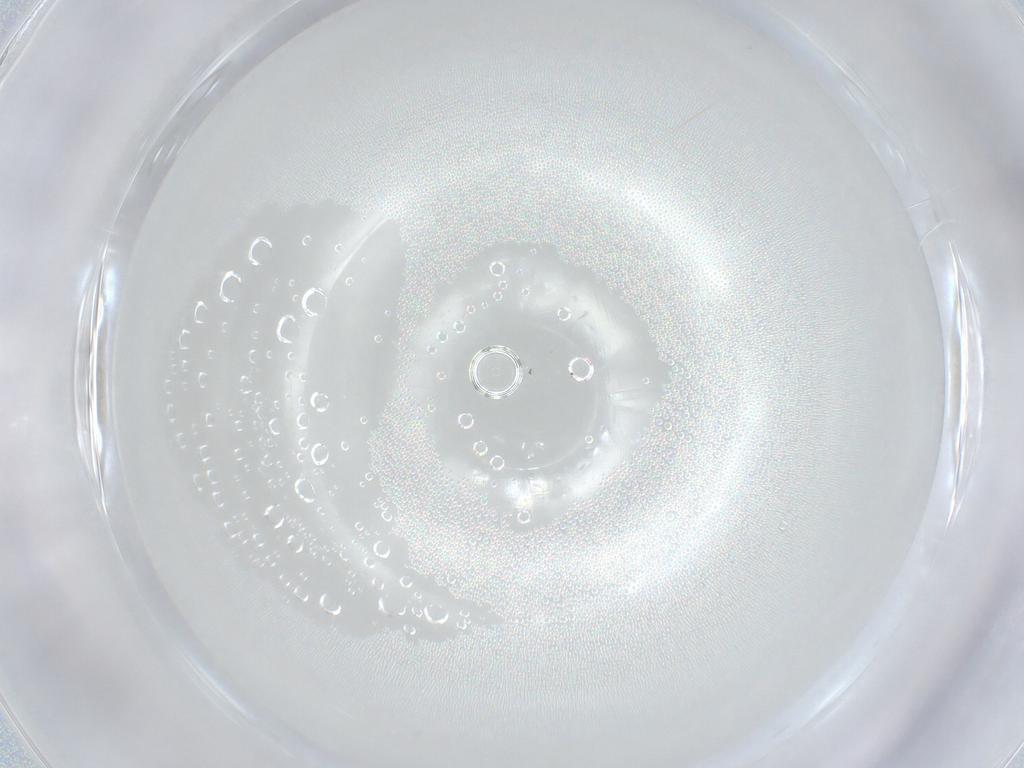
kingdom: Animalia
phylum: Arthropoda
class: Insecta
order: Hymenoptera
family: Mymaridae
